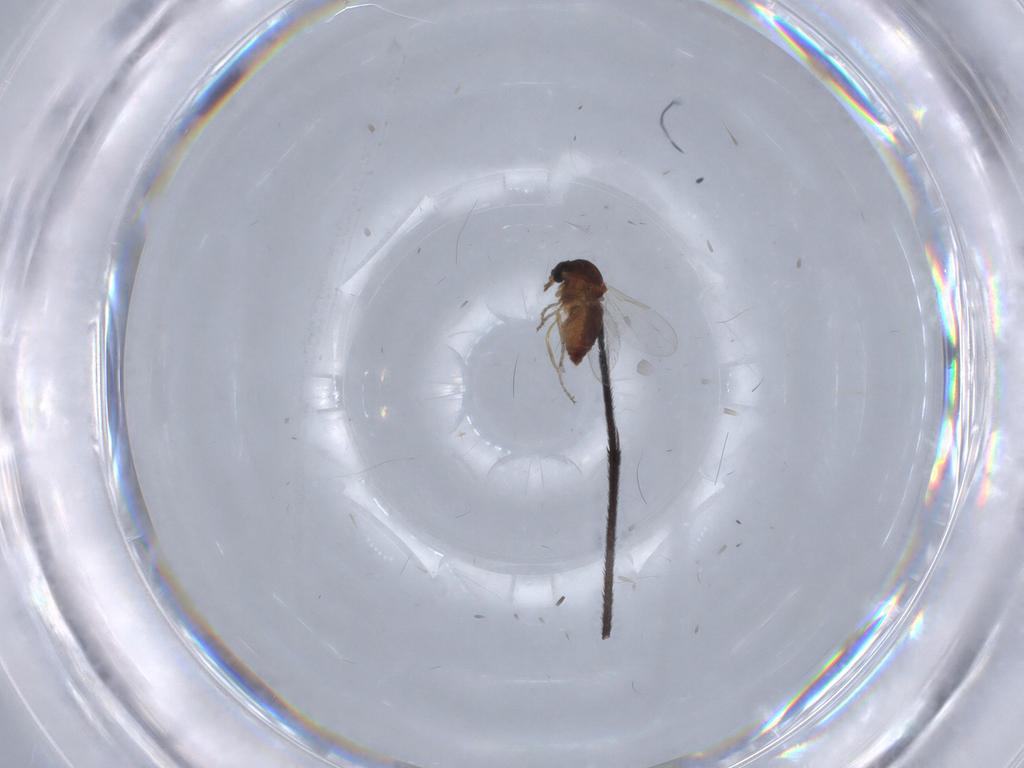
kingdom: Animalia
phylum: Arthropoda
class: Insecta
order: Diptera
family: Ceratopogonidae
